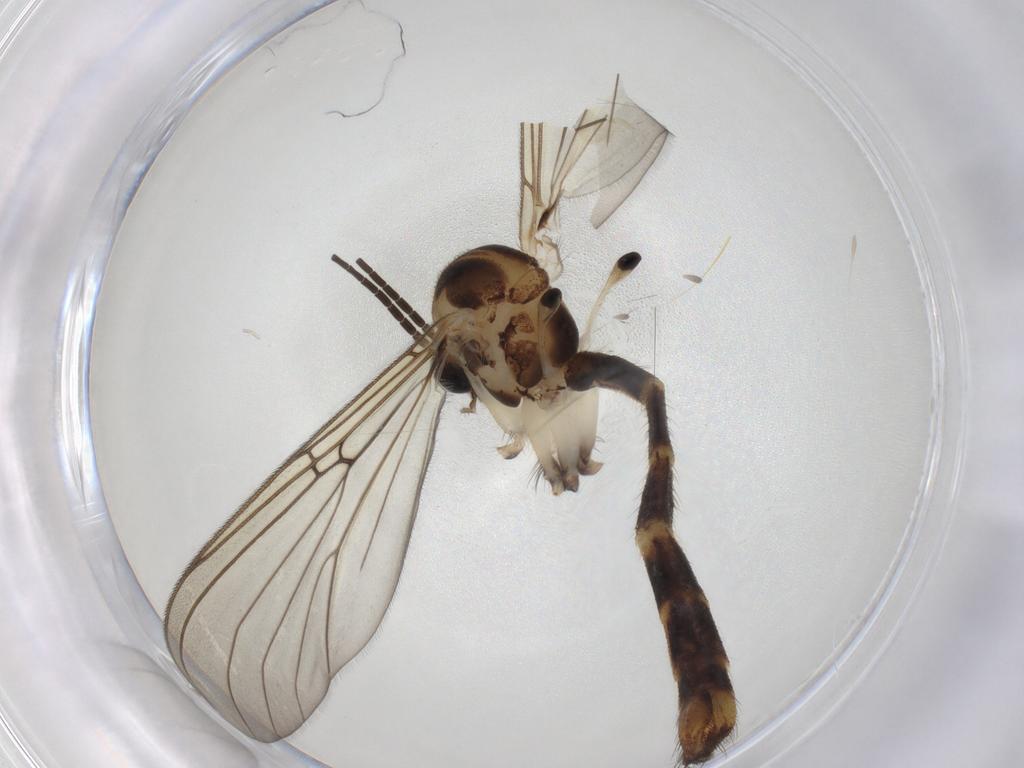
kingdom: Animalia
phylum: Arthropoda
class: Insecta
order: Diptera
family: Mycetophilidae
